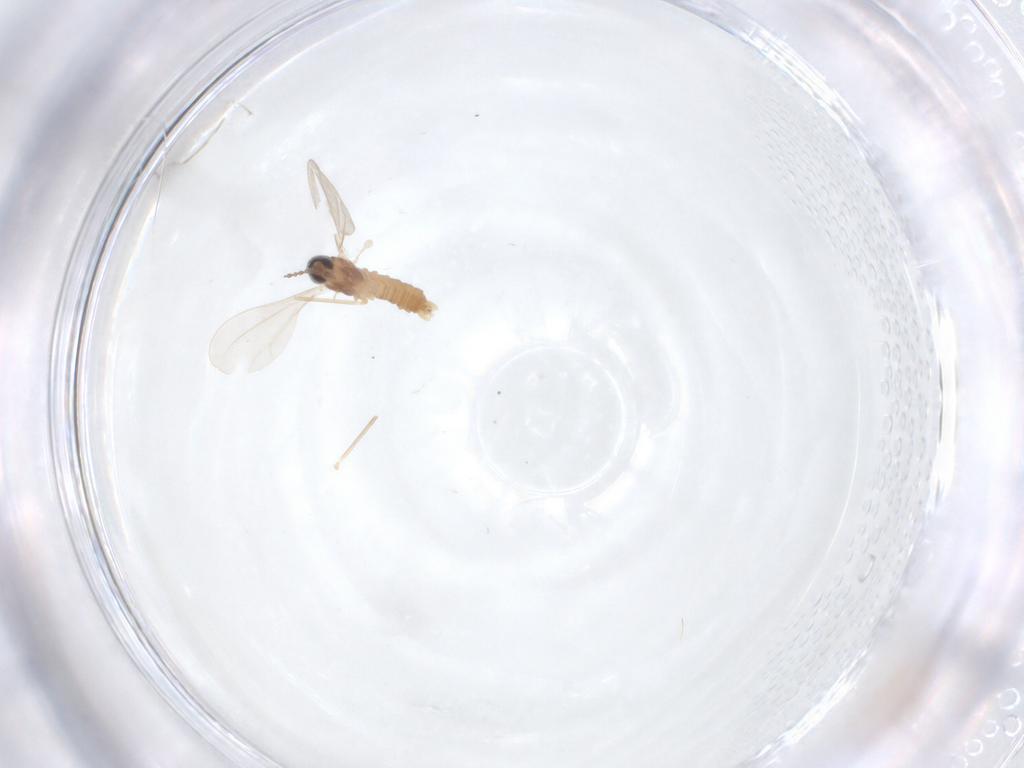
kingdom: Animalia
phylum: Arthropoda
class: Insecta
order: Diptera
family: Cecidomyiidae
